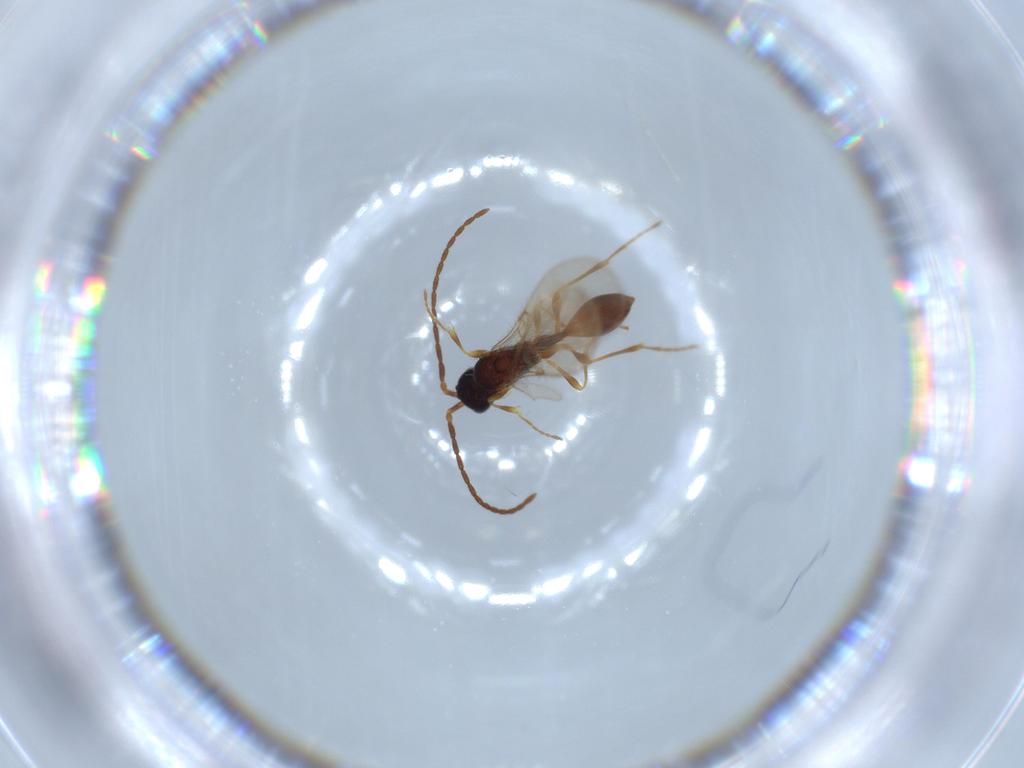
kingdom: Animalia
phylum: Arthropoda
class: Insecta
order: Hymenoptera
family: Diapriidae
